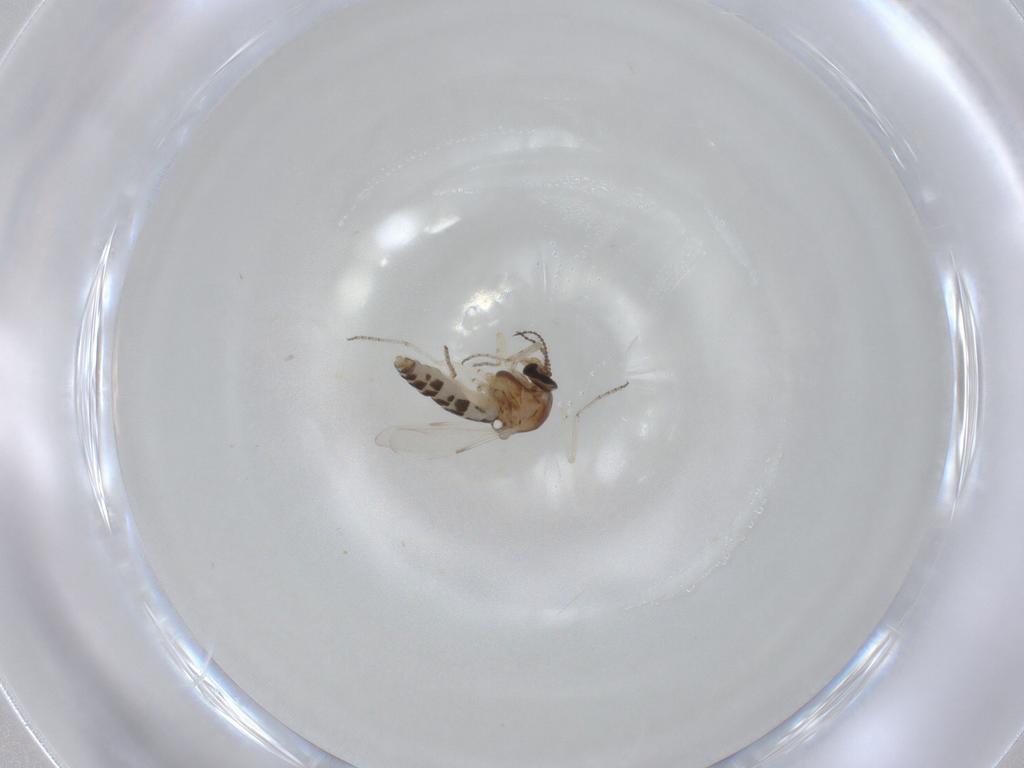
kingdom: Animalia
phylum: Arthropoda
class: Insecta
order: Diptera
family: Ceratopogonidae
